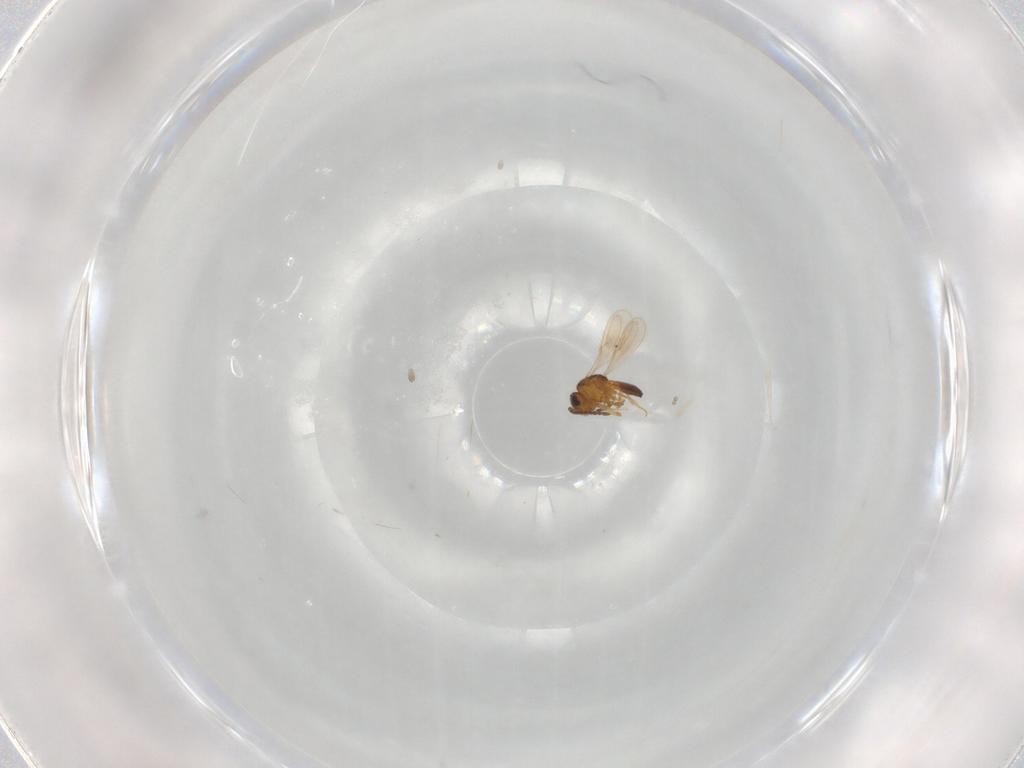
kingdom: Animalia
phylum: Arthropoda
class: Insecta
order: Hymenoptera
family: Scelionidae
